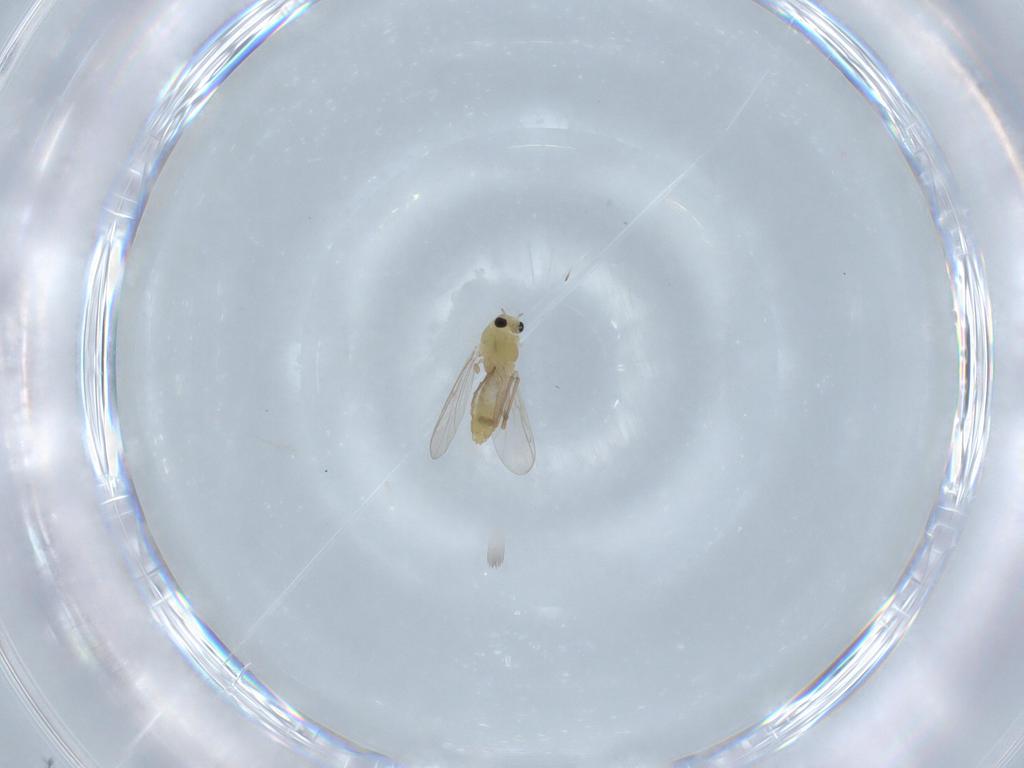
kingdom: Animalia
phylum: Arthropoda
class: Insecta
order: Diptera
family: Chironomidae
